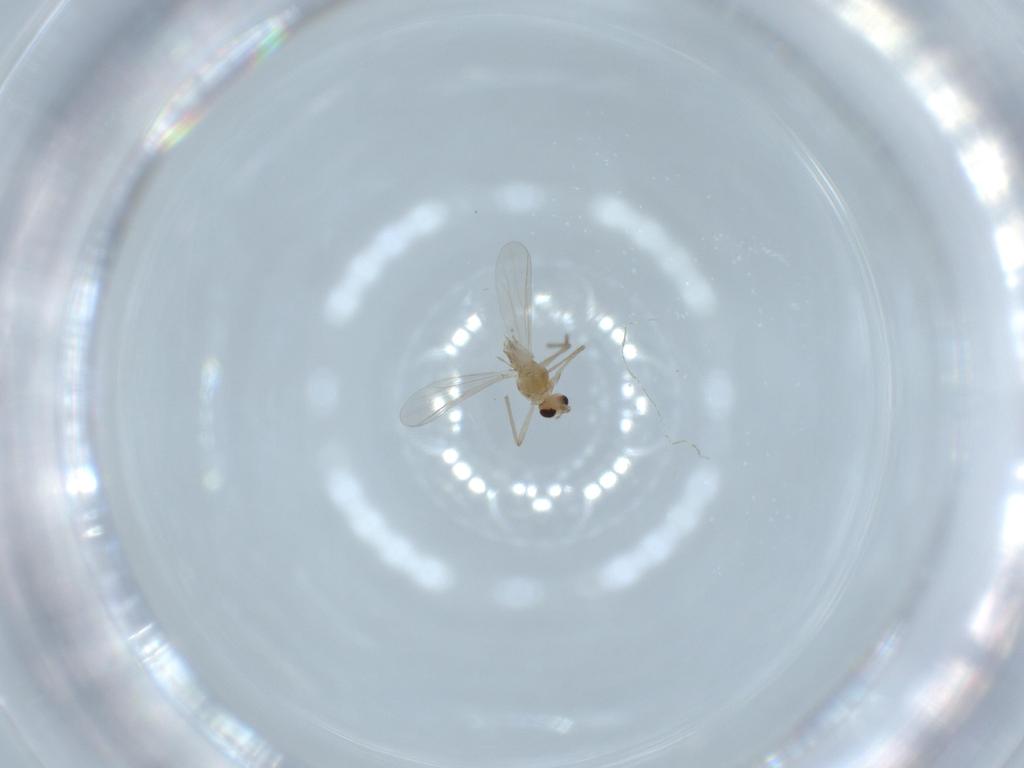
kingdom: Animalia
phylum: Arthropoda
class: Insecta
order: Diptera
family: Chironomidae
